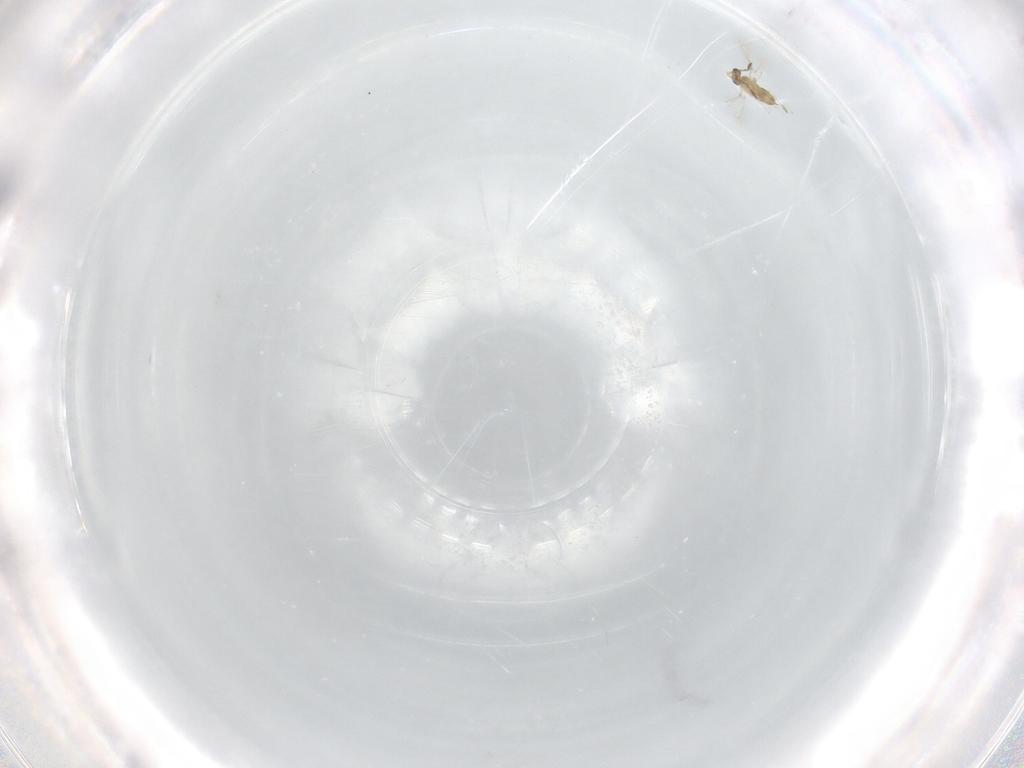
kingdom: Animalia
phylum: Arthropoda
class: Insecta
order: Hymenoptera
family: Mymaridae
